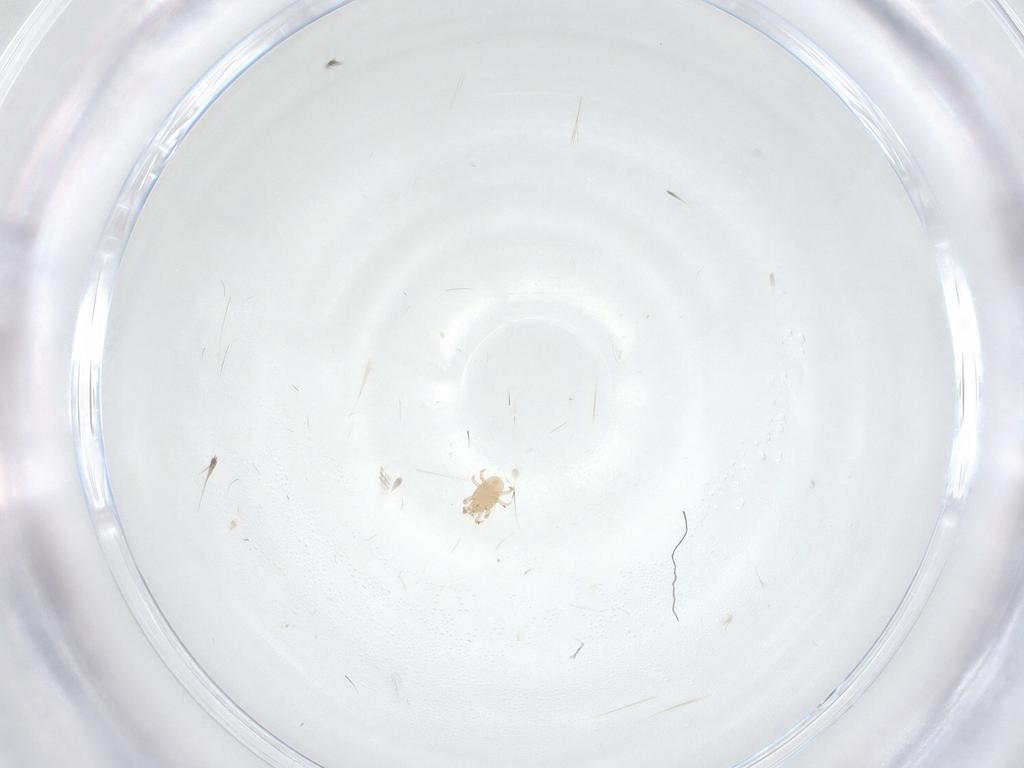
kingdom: Animalia
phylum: Arthropoda
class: Arachnida
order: Mesostigmata
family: Melicharidae
